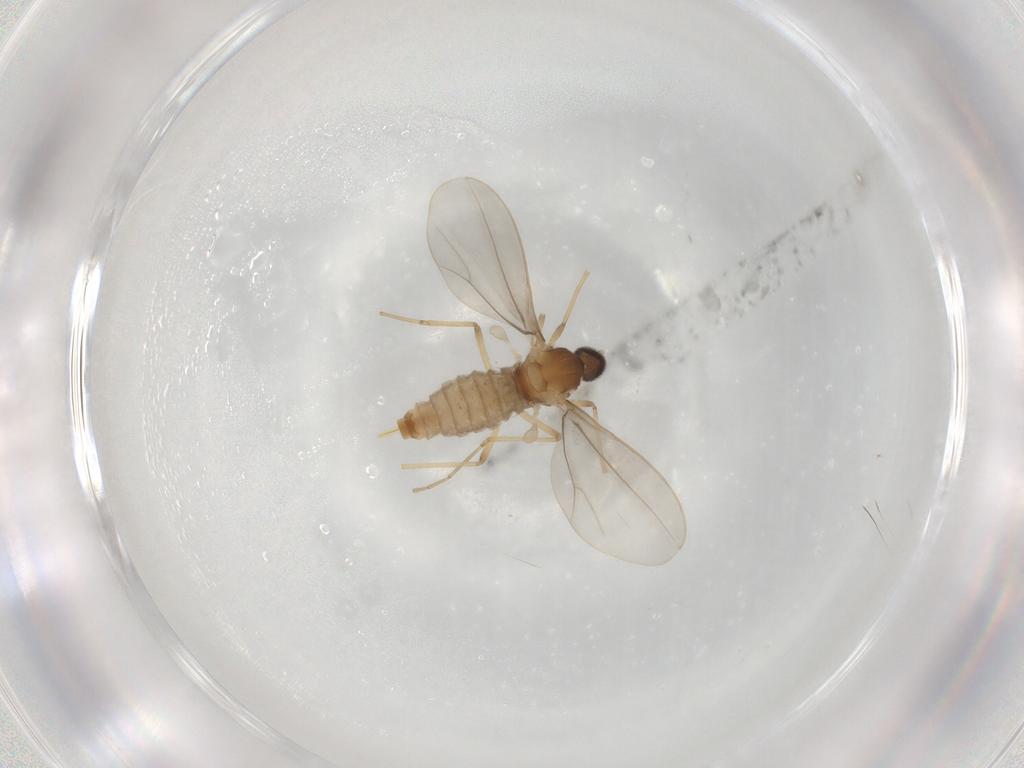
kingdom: Animalia
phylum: Arthropoda
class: Insecta
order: Diptera
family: Cecidomyiidae
